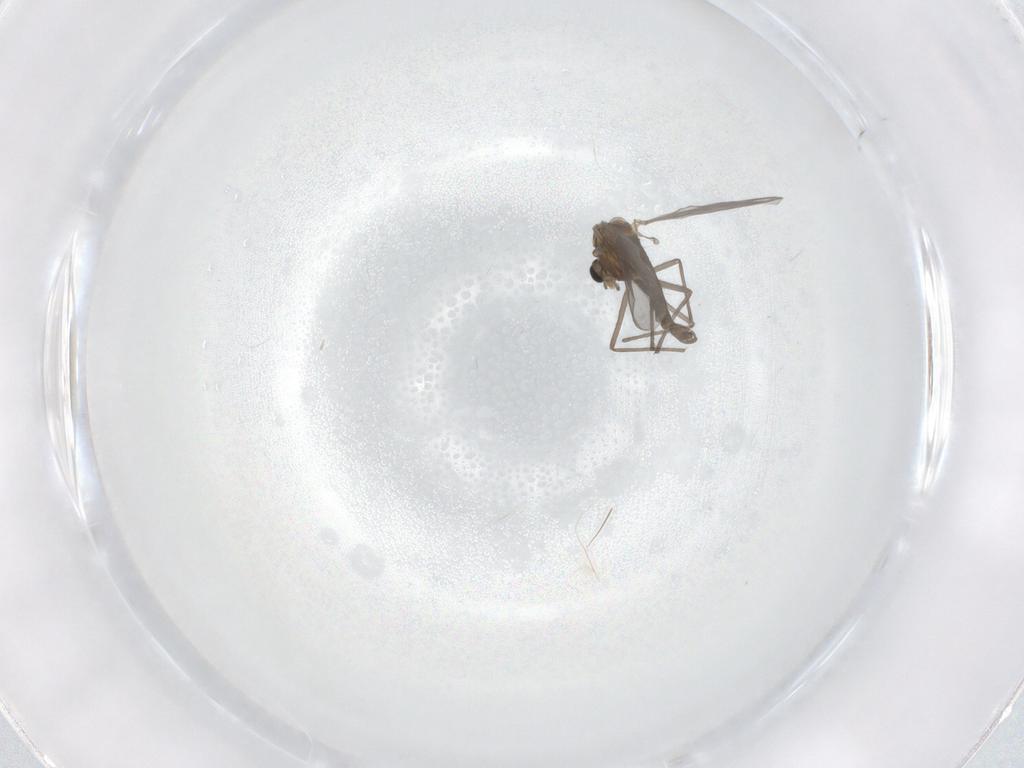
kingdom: Animalia
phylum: Arthropoda
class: Insecta
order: Diptera
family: Chironomidae
